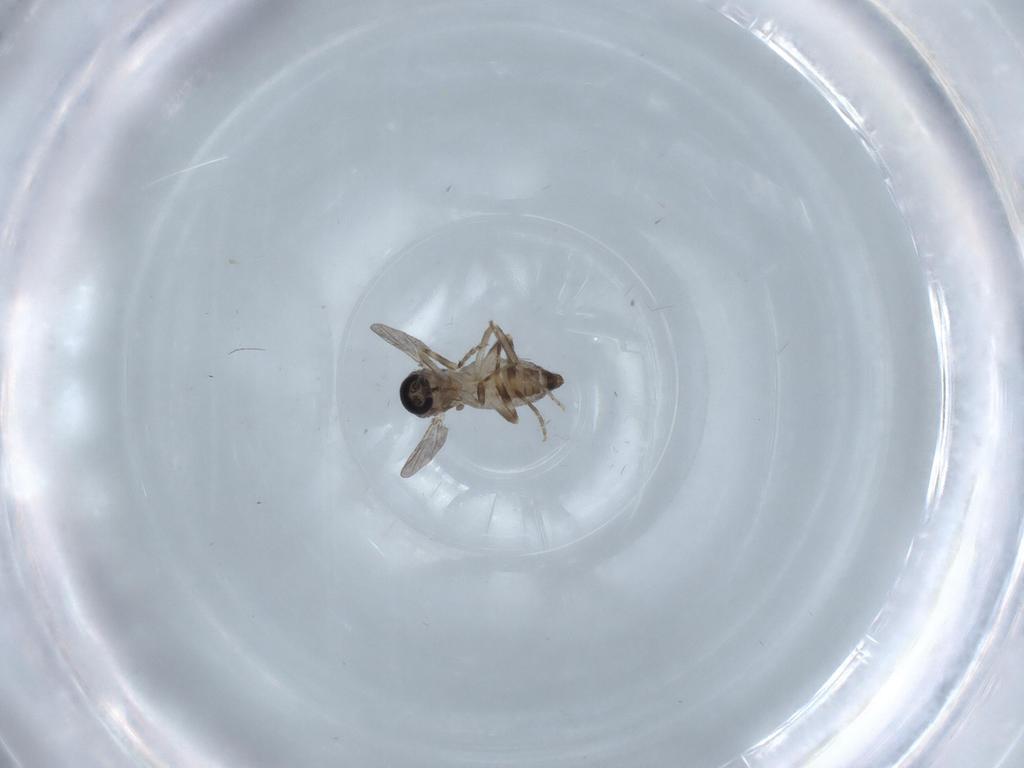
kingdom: Animalia
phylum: Arthropoda
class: Insecta
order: Diptera
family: Ceratopogonidae
